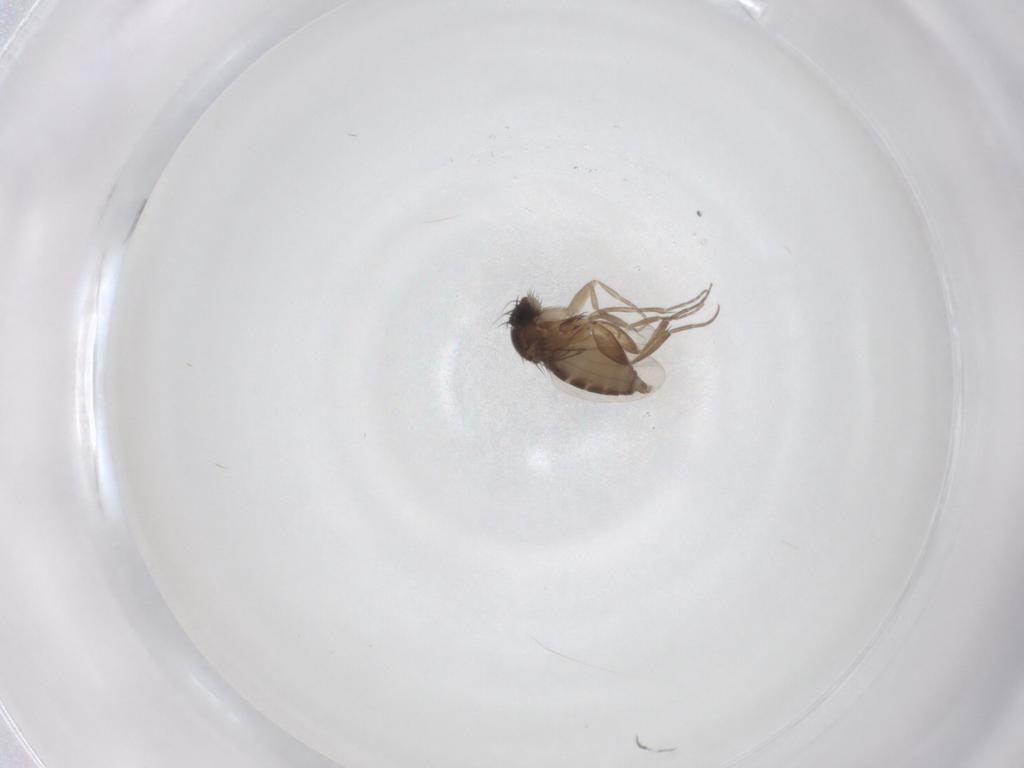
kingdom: Animalia
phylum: Arthropoda
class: Insecta
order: Diptera
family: Phoridae
